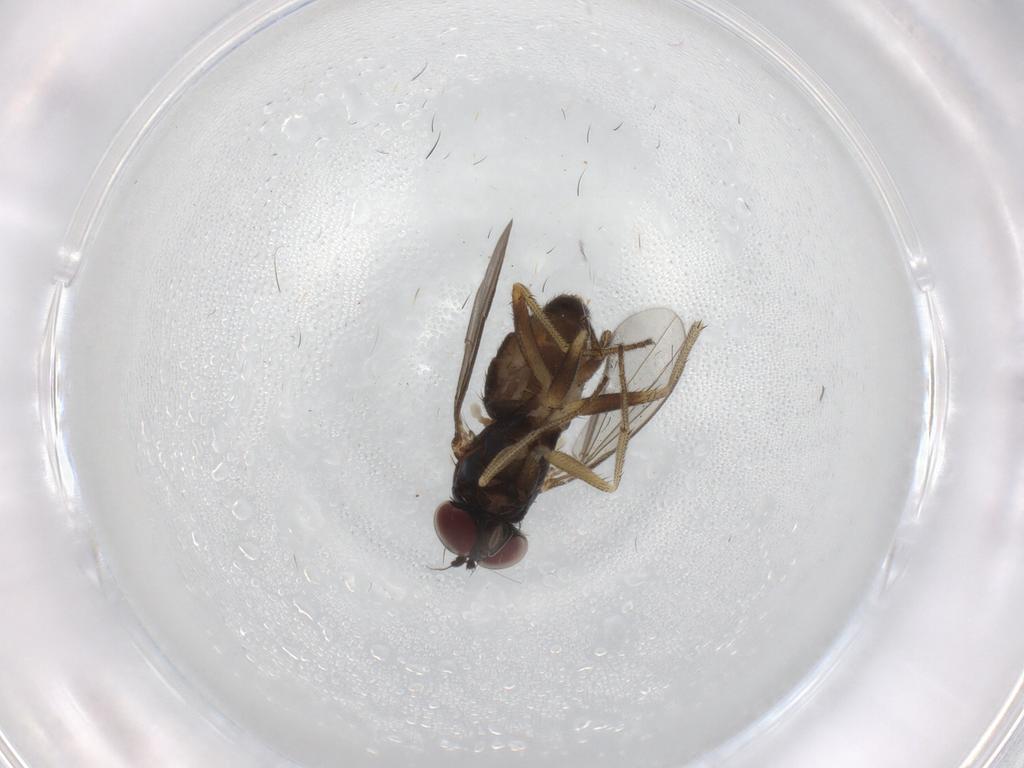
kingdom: Animalia
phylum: Arthropoda
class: Insecta
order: Diptera
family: Dolichopodidae
